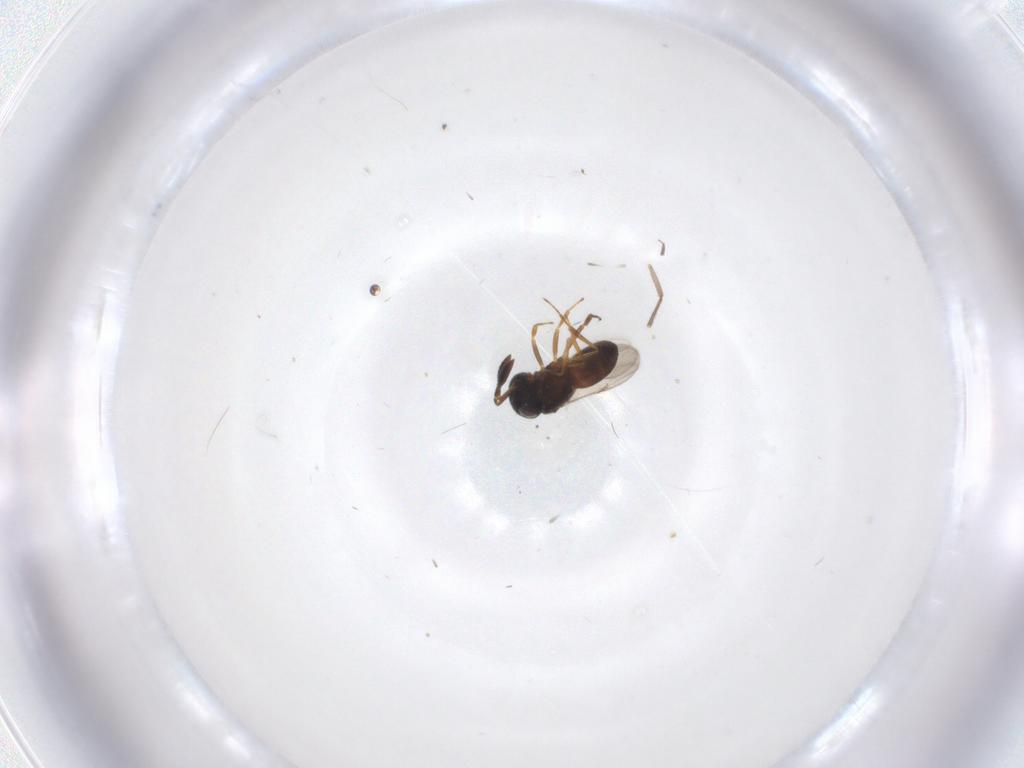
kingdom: Animalia
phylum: Arthropoda
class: Insecta
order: Hymenoptera
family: Scelionidae
